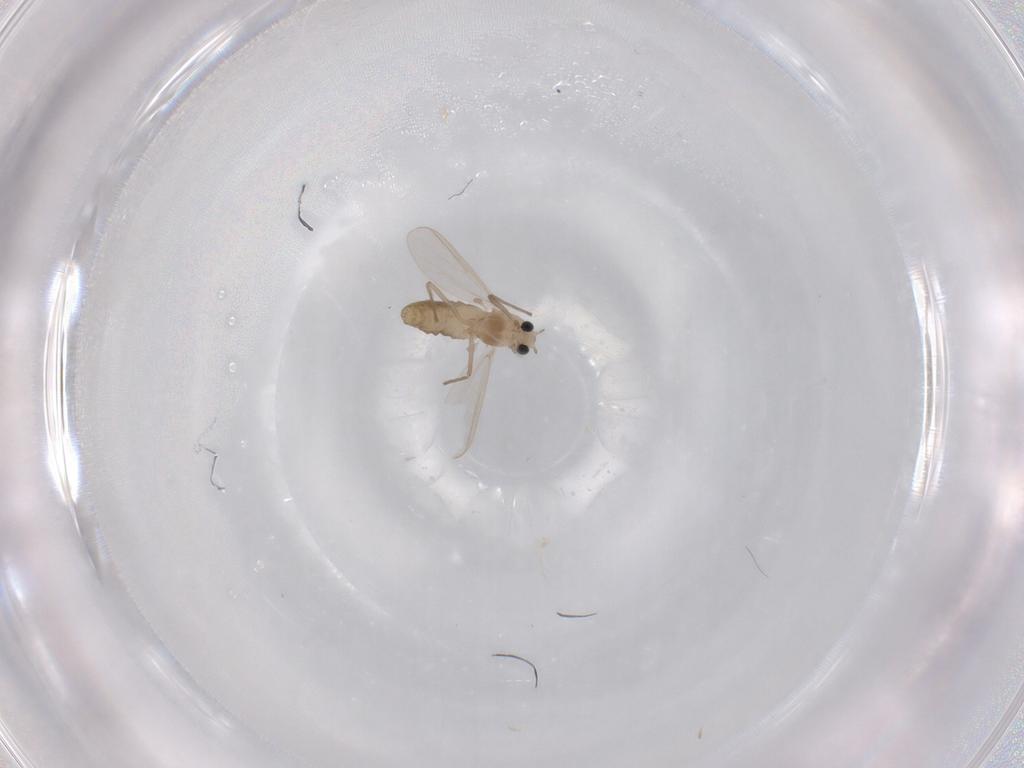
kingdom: Animalia
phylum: Arthropoda
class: Insecta
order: Diptera
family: Chironomidae
